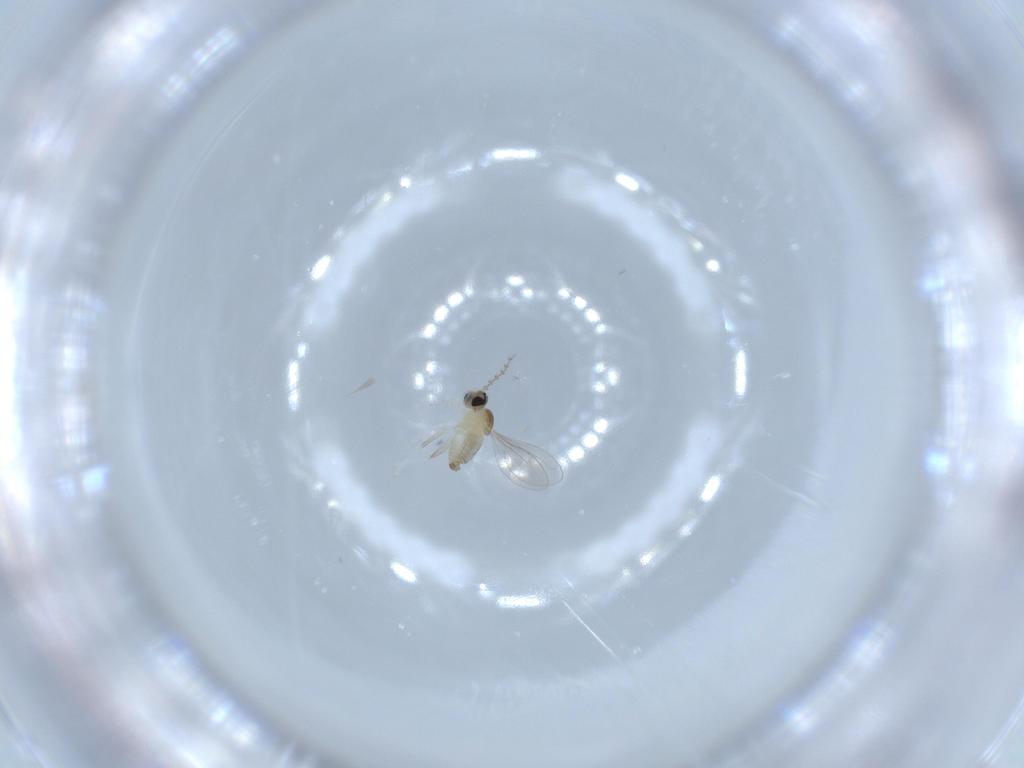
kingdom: Animalia
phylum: Arthropoda
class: Insecta
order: Diptera
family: Cecidomyiidae
